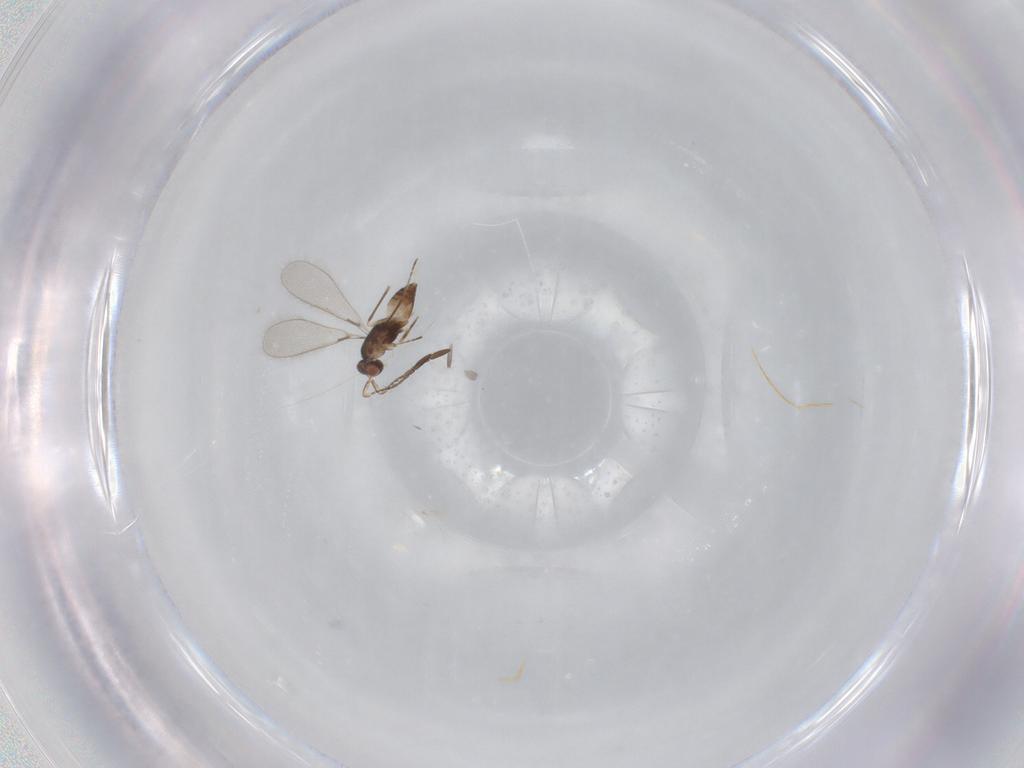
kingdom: Animalia
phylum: Arthropoda
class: Insecta
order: Hymenoptera
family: Mymaridae
